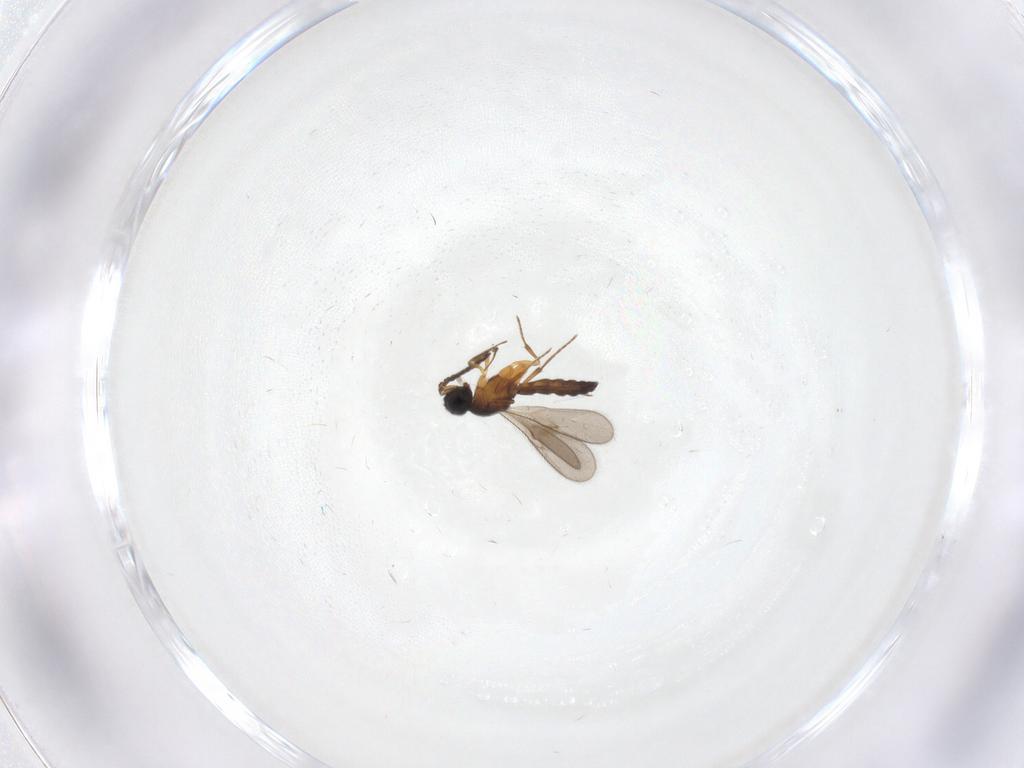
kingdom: Animalia
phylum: Arthropoda
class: Insecta
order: Hymenoptera
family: Scelionidae
